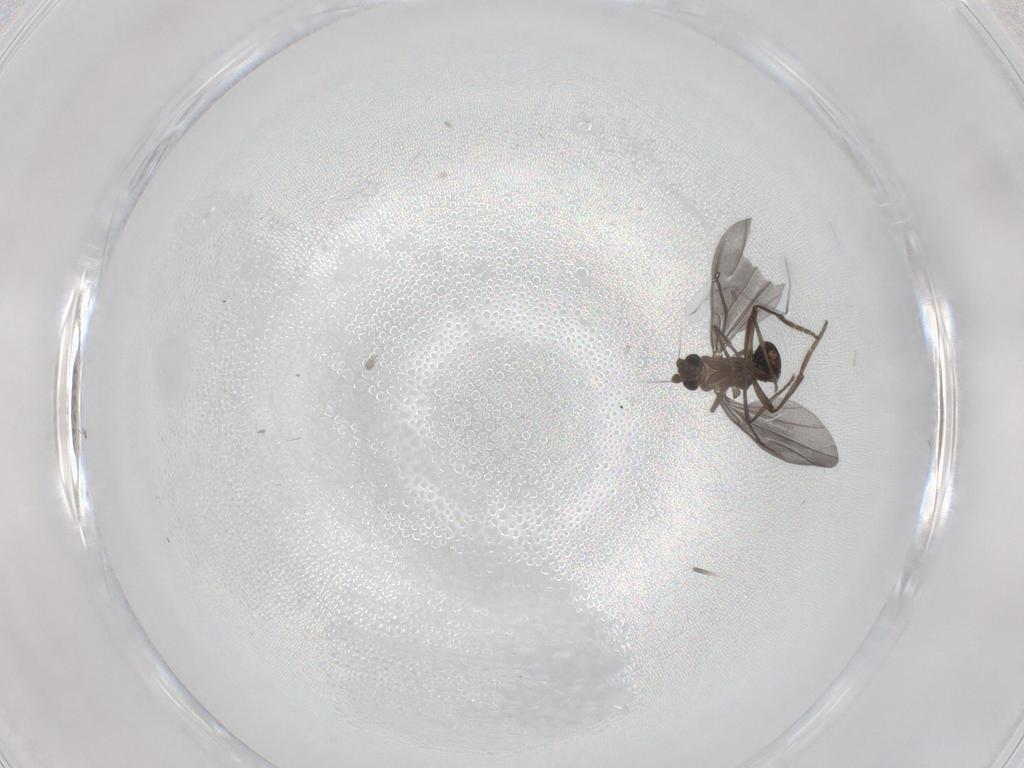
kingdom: Animalia
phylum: Arthropoda
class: Insecta
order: Diptera
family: Phoridae
